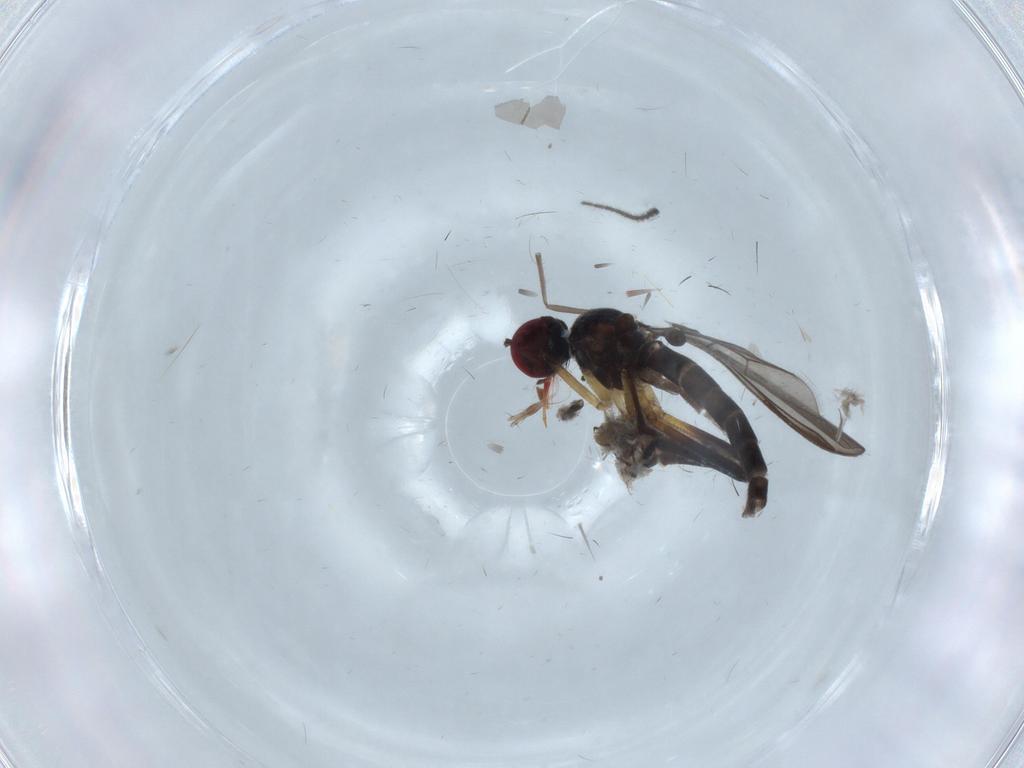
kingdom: Animalia
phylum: Arthropoda
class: Insecta
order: Diptera
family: Empididae
